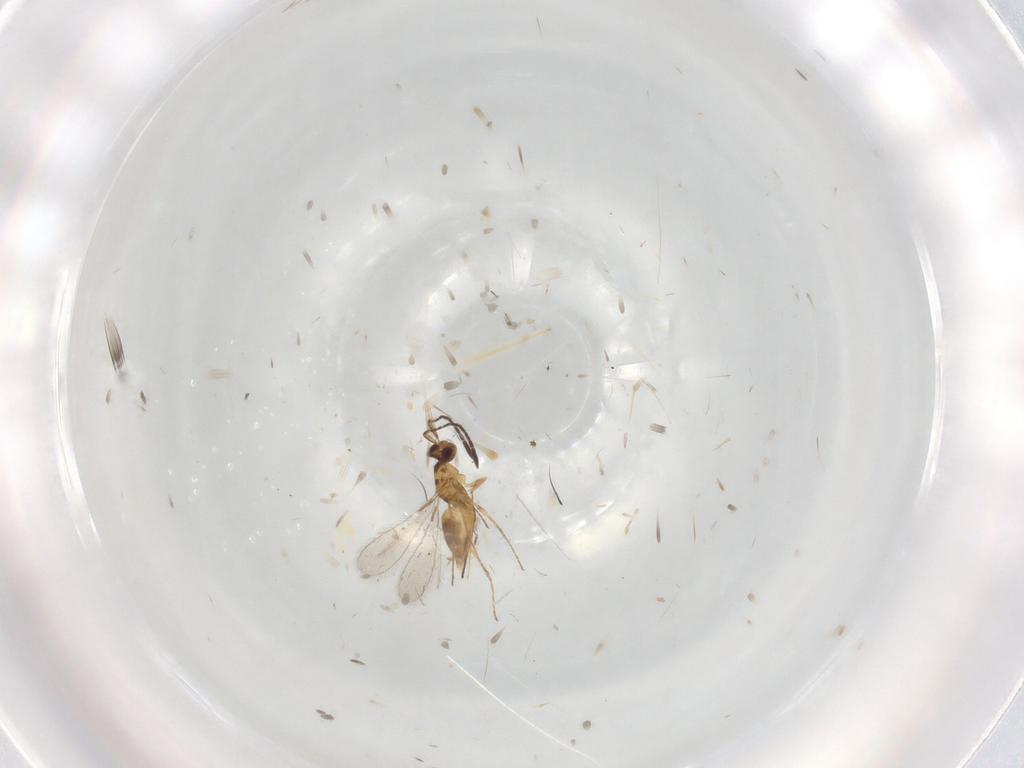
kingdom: Animalia
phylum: Arthropoda
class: Insecta
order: Hymenoptera
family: Mymaridae
